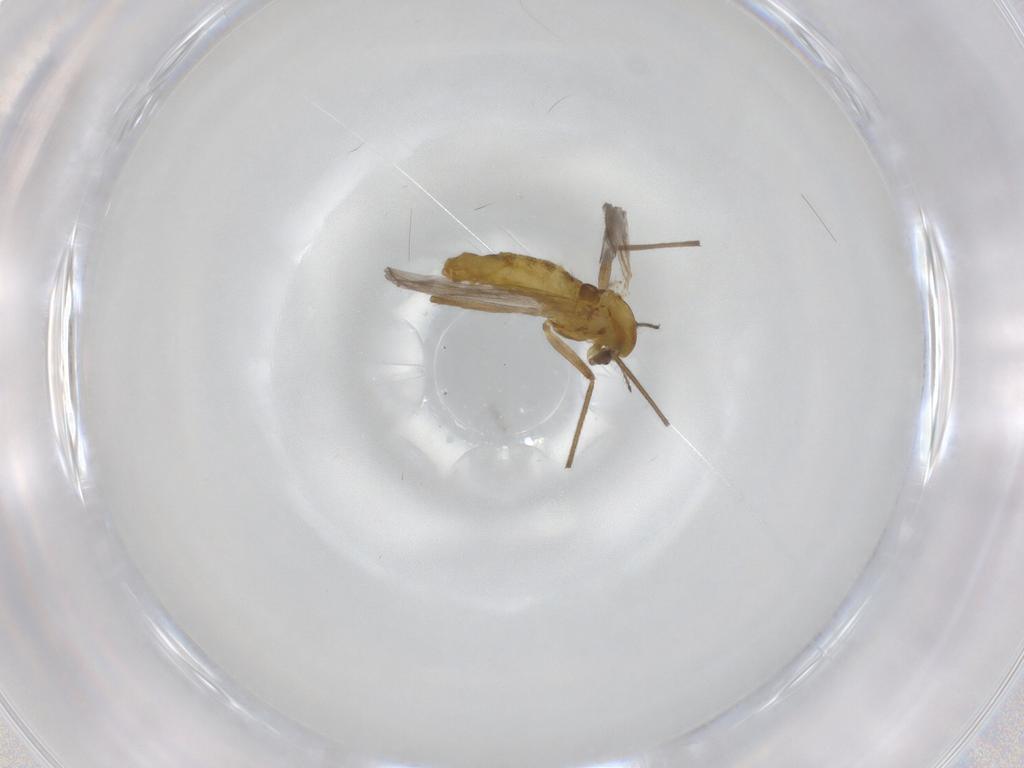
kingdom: Animalia
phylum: Arthropoda
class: Insecta
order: Diptera
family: Chironomidae
